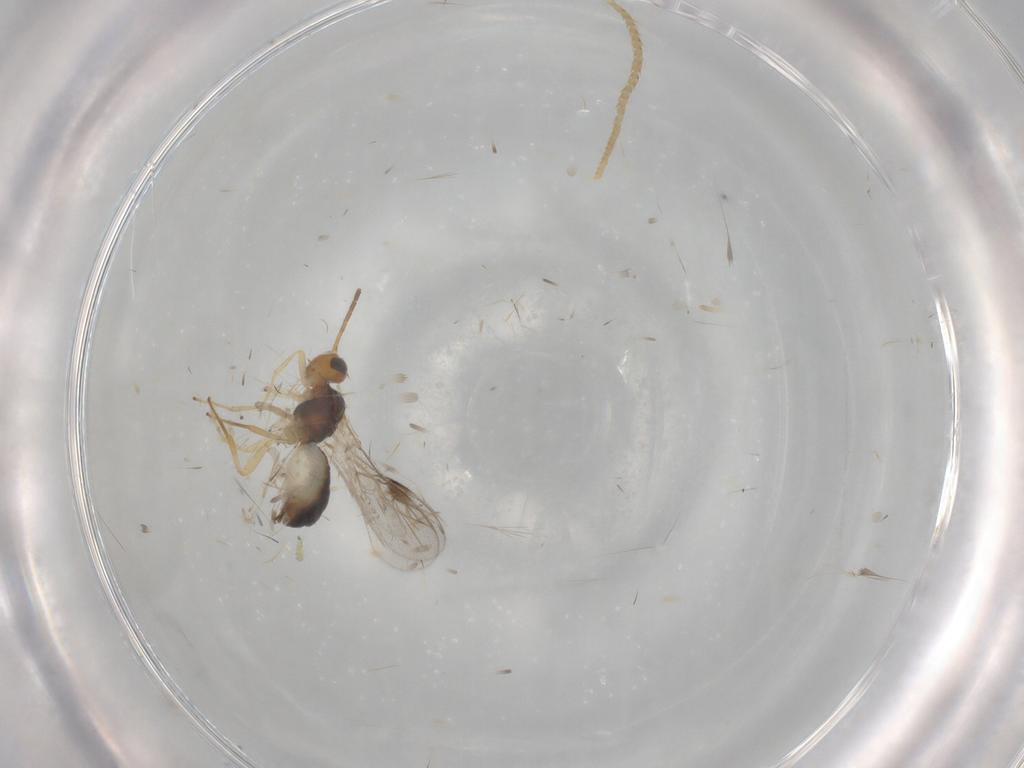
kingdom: Animalia
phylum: Arthropoda
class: Insecta
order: Hymenoptera
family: Braconidae
